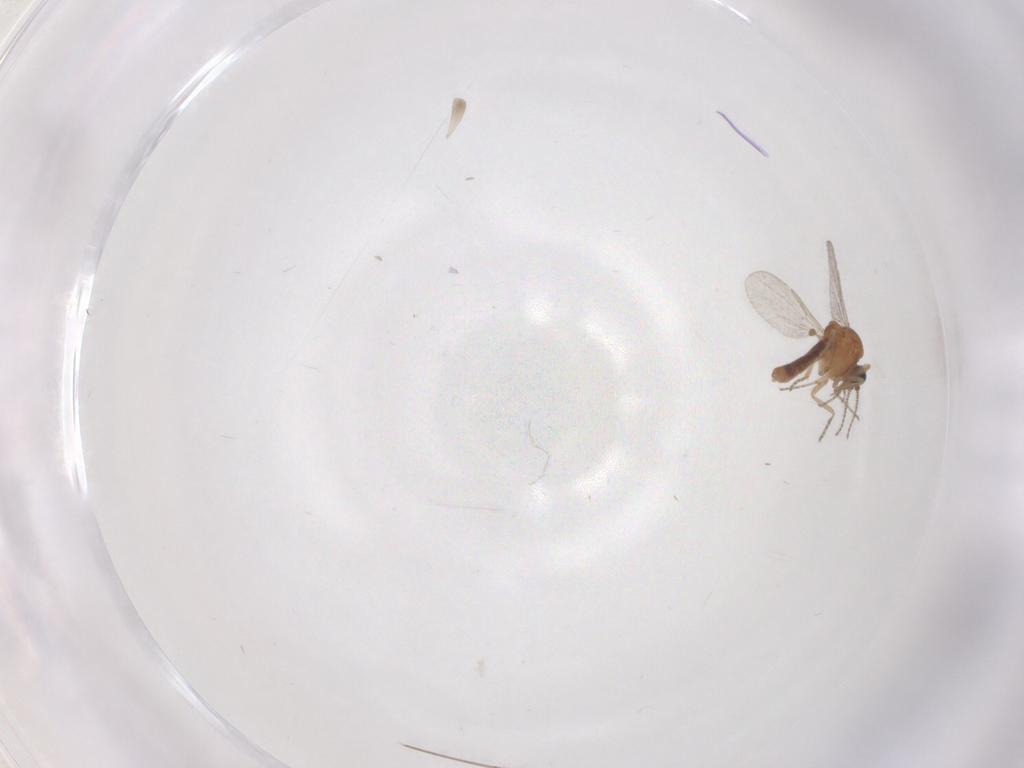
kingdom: Animalia
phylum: Arthropoda
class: Insecta
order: Diptera
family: Ceratopogonidae
